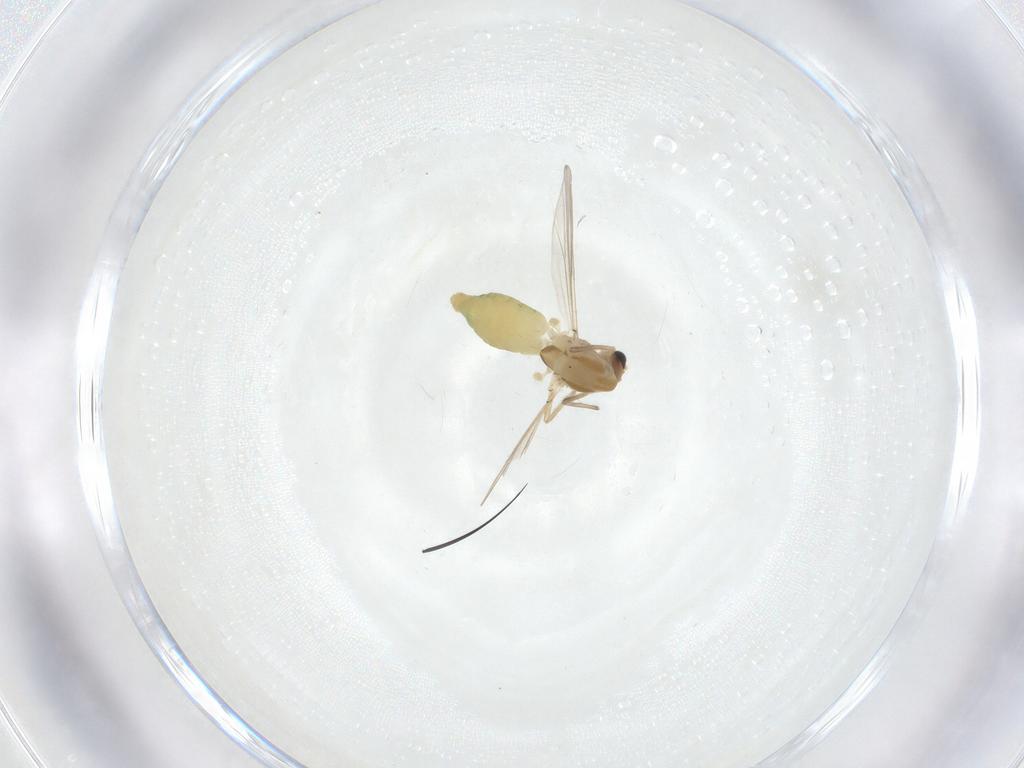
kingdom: Animalia
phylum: Arthropoda
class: Insecta
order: Diptera
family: Chironomidae
